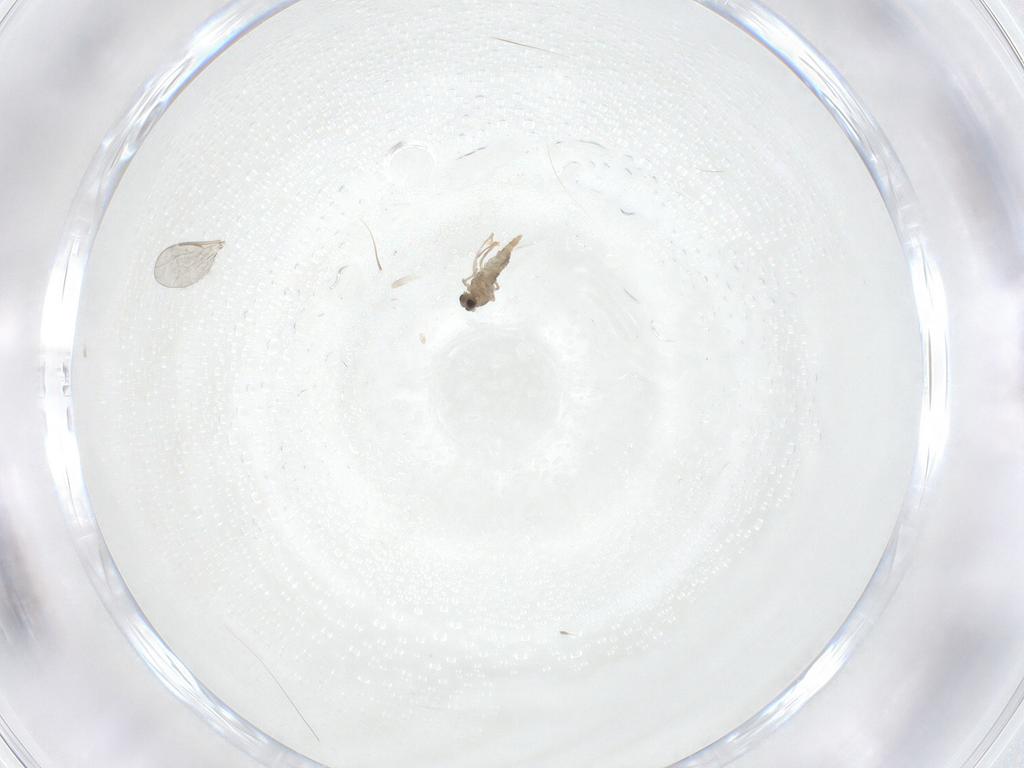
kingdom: Animalia
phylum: Arthropoda
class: Insecta
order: Diptera
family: Cecidomyiidae
